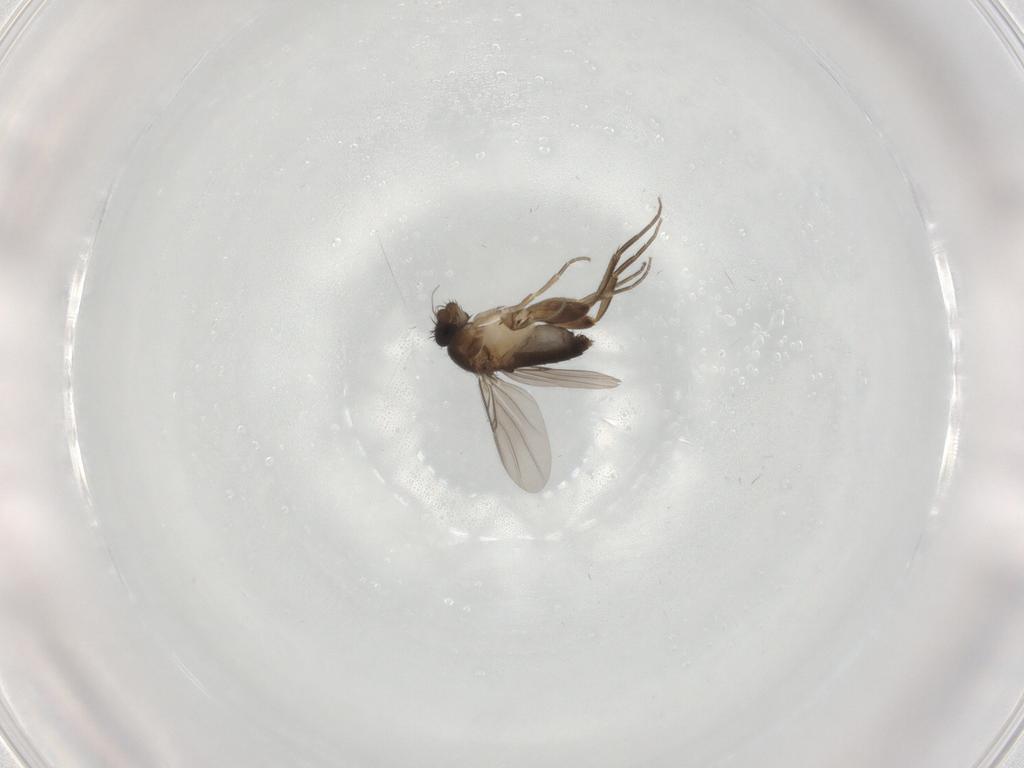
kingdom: Animalia
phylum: Arthropoda
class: Insecta
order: Diptera
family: Phoridae
